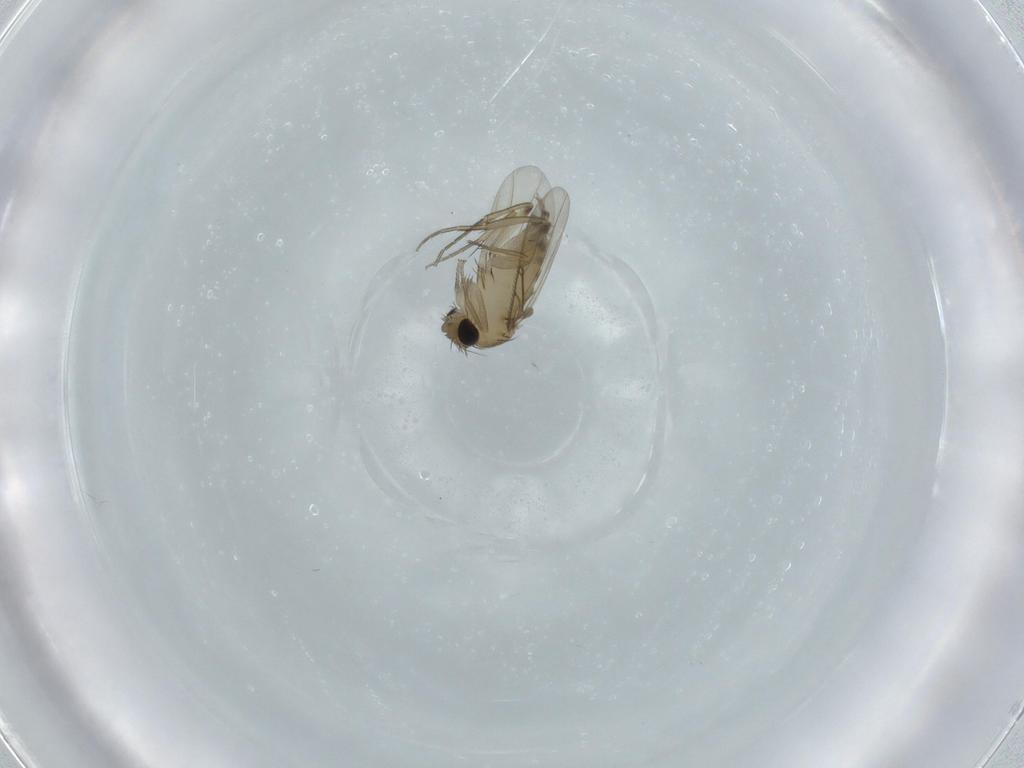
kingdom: Animalia
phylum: Arthropoda
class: Insecta
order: Diptera
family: Phoridae
